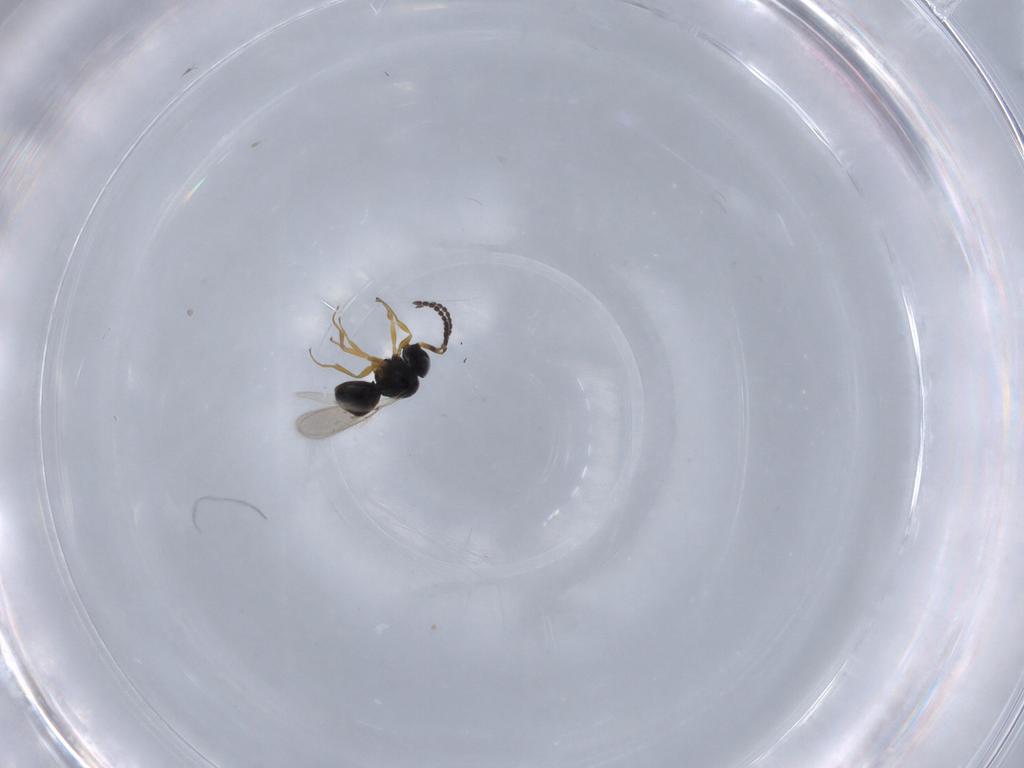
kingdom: Animalia
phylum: Arthropoda
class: Insecta
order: Hymenoptera
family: Scelionidae
